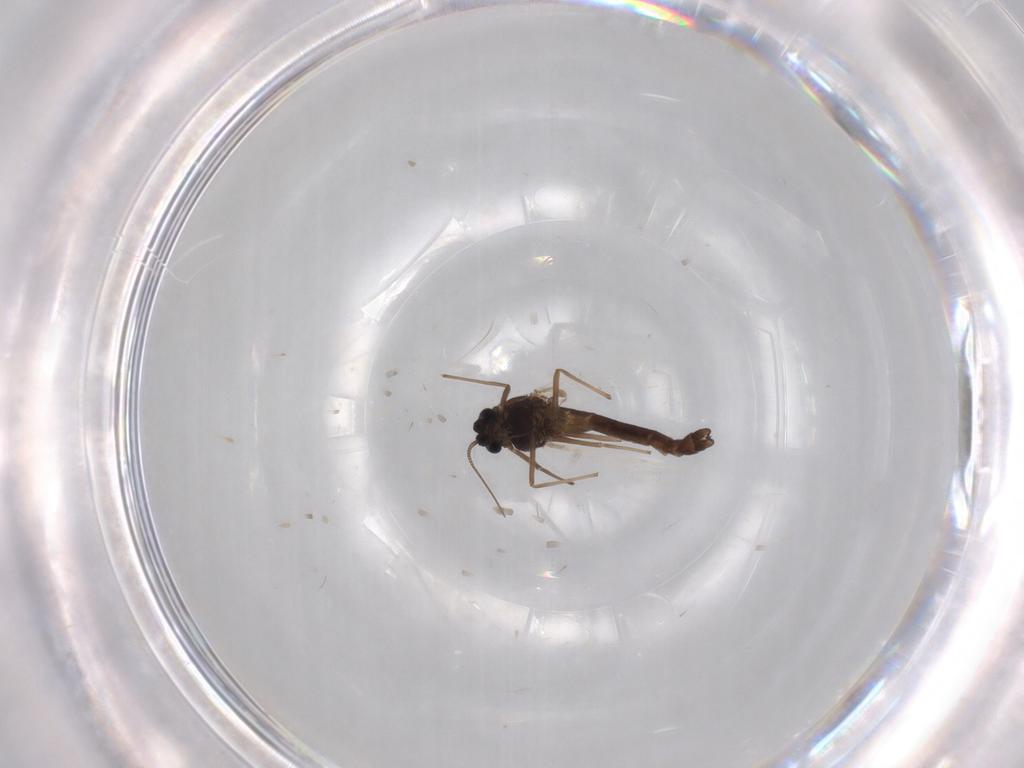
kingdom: Animalia
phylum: Arthropoda
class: Insecta
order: Diptera
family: Chironomidae
